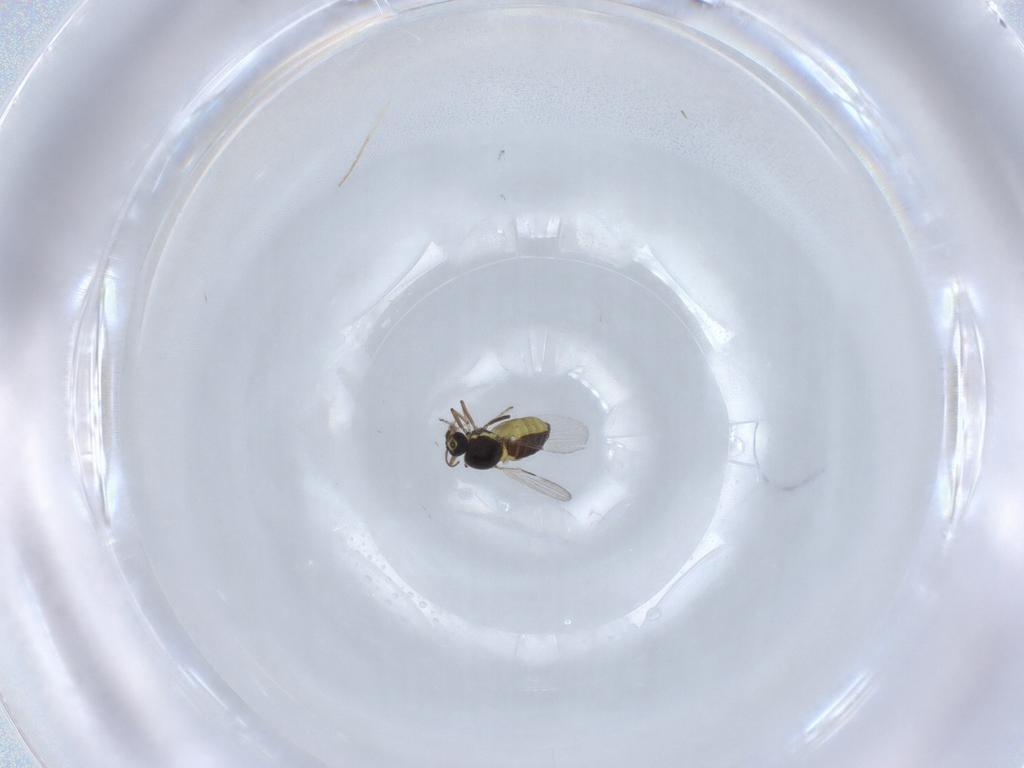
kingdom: Animalia
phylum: Arthropoda
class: Insecta
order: Diptera
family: Ceratopogonidae
